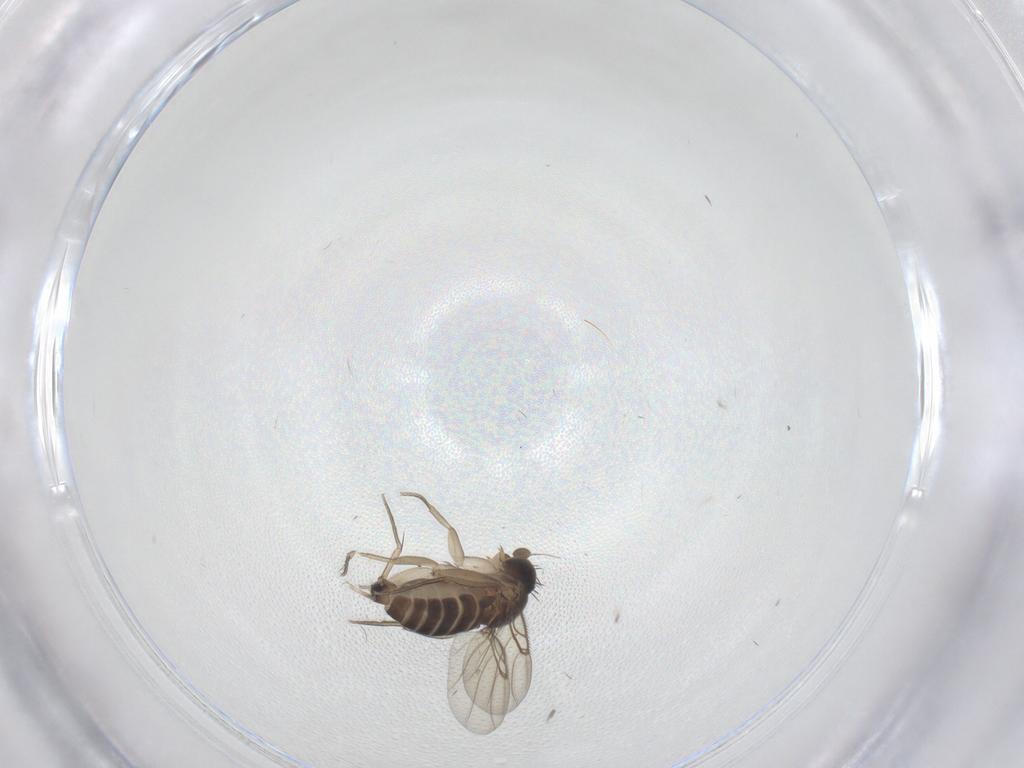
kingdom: Animalia
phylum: Arthropoda
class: Insecta
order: Diptera
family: Phoridae
